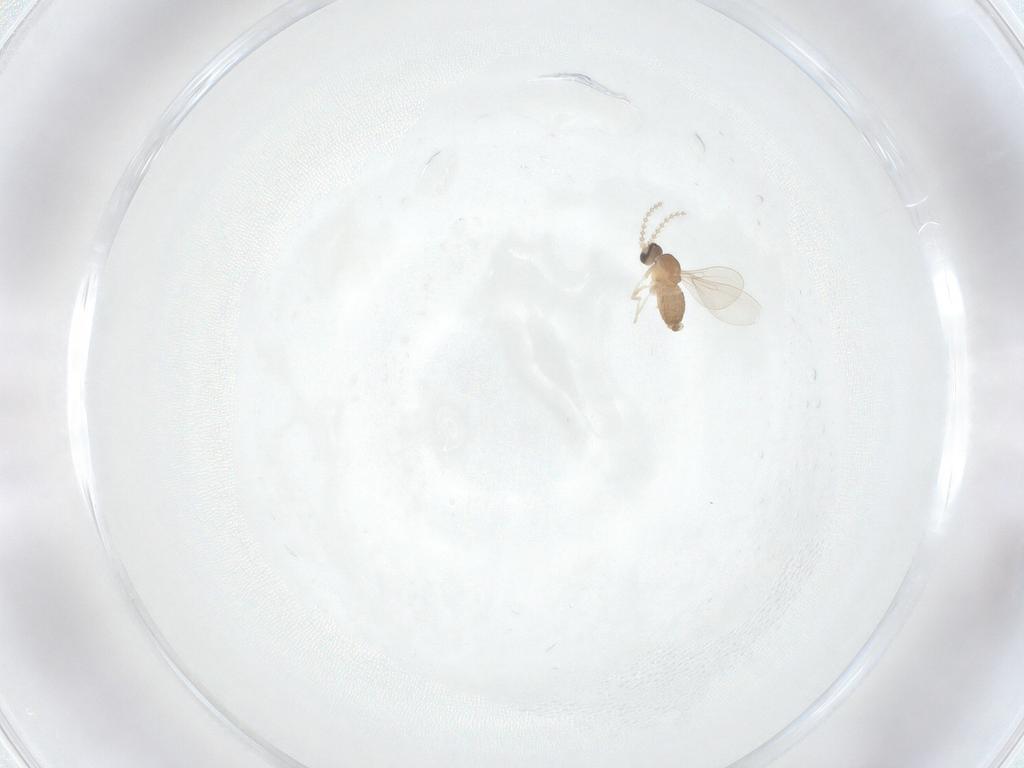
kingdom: Animalia
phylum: Arthropoda
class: Insecta
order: Diptera
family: Cecidomyiidae
